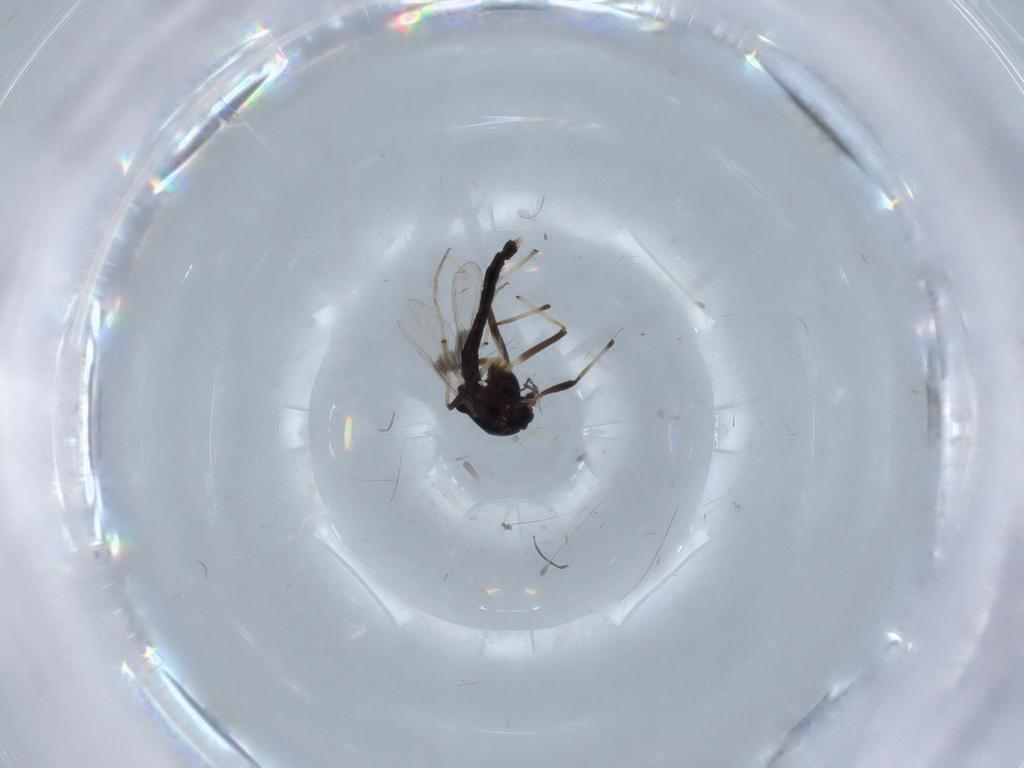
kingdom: Animalia
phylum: Arthropoda
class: Insecta
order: Diptera
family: Chironomidae
